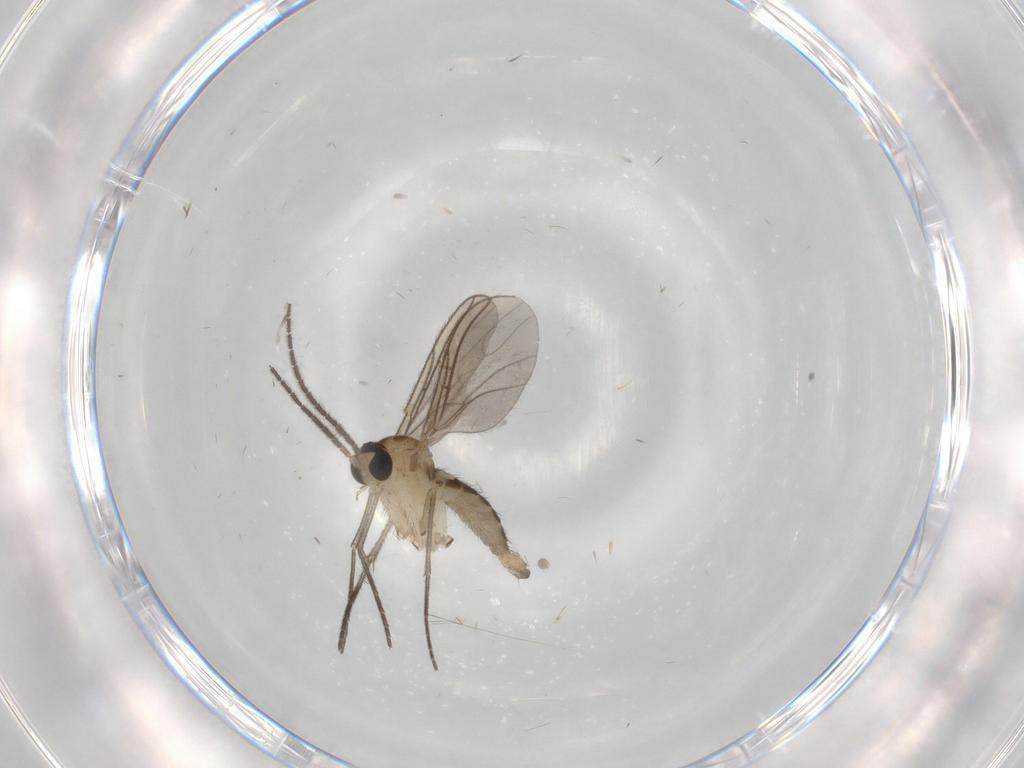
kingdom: Animalia
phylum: Arthropoda
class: Insecta
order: Diptera
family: Sciaridae
